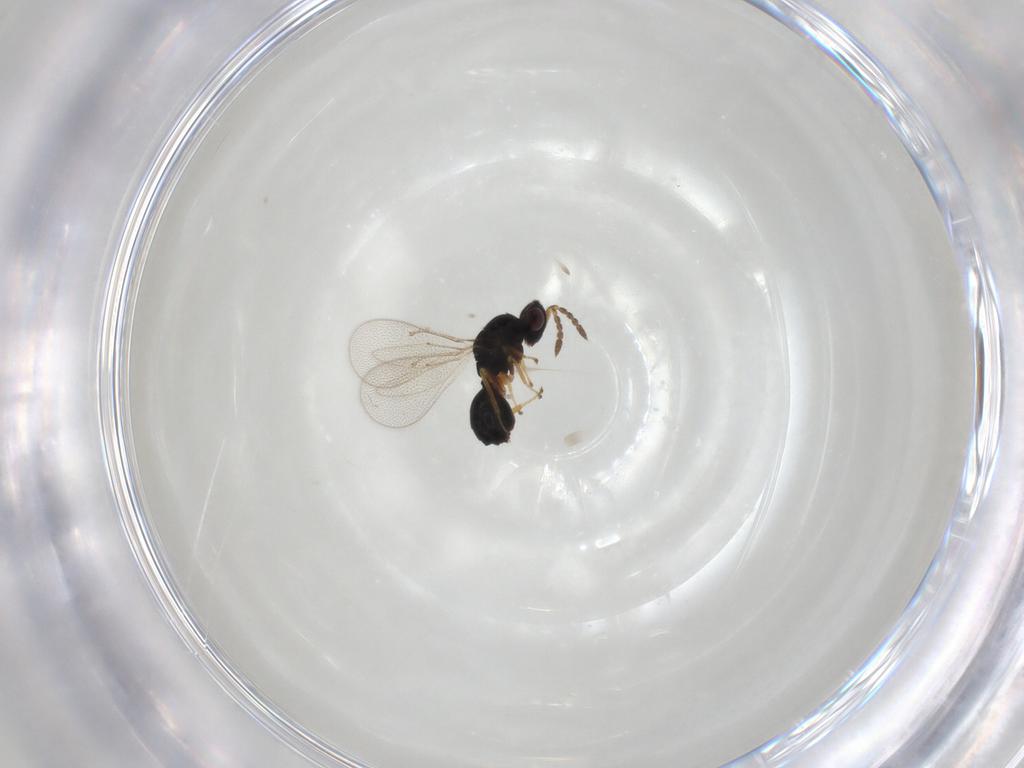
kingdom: Animalia
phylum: Arthropoda
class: Insecta
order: Hymenoptera
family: Eulophidae
